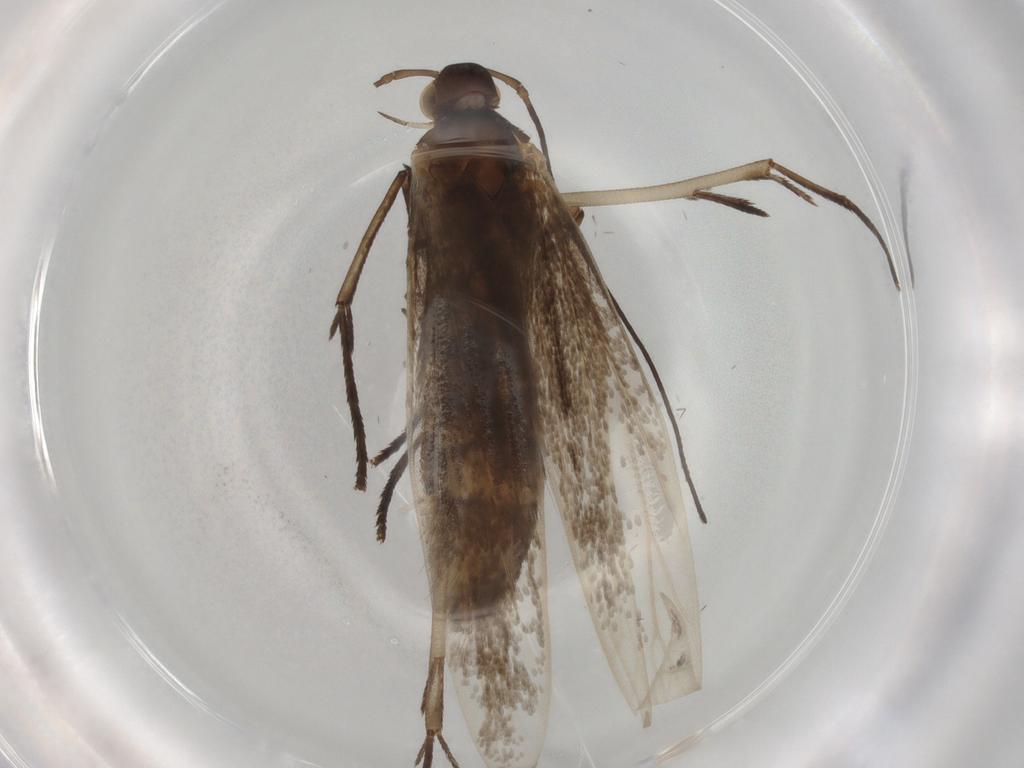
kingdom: Animalia
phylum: Arthropoda
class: Insecta
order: Lepidoptera
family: Coleophoridae
